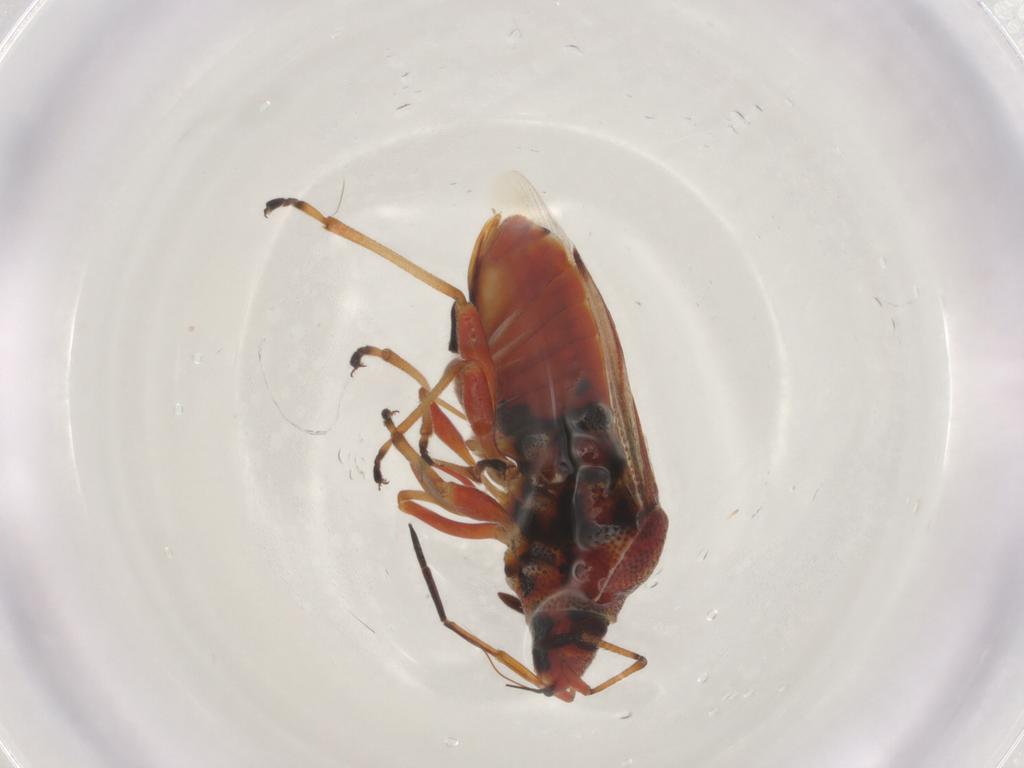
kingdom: Animalia
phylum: Arthropoda
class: Insecta
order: Hemiptera
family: Lygaeidae
